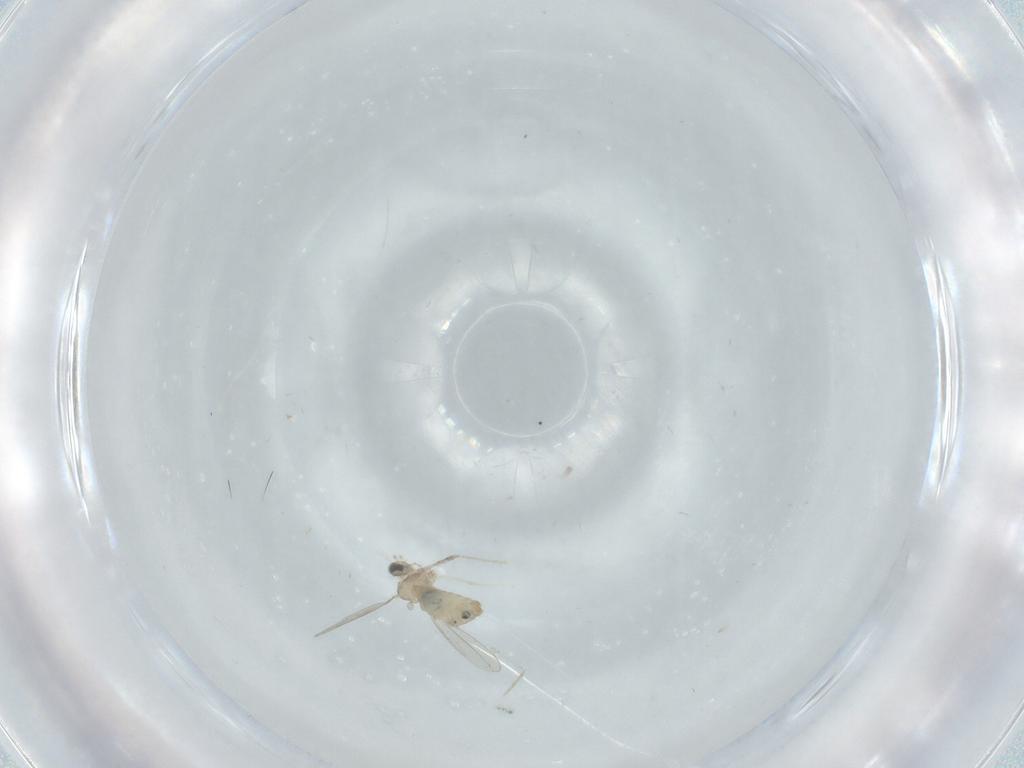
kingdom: Animalia
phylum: Arthropoda
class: Insecta
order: Diptera
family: Cecidomyiidae
